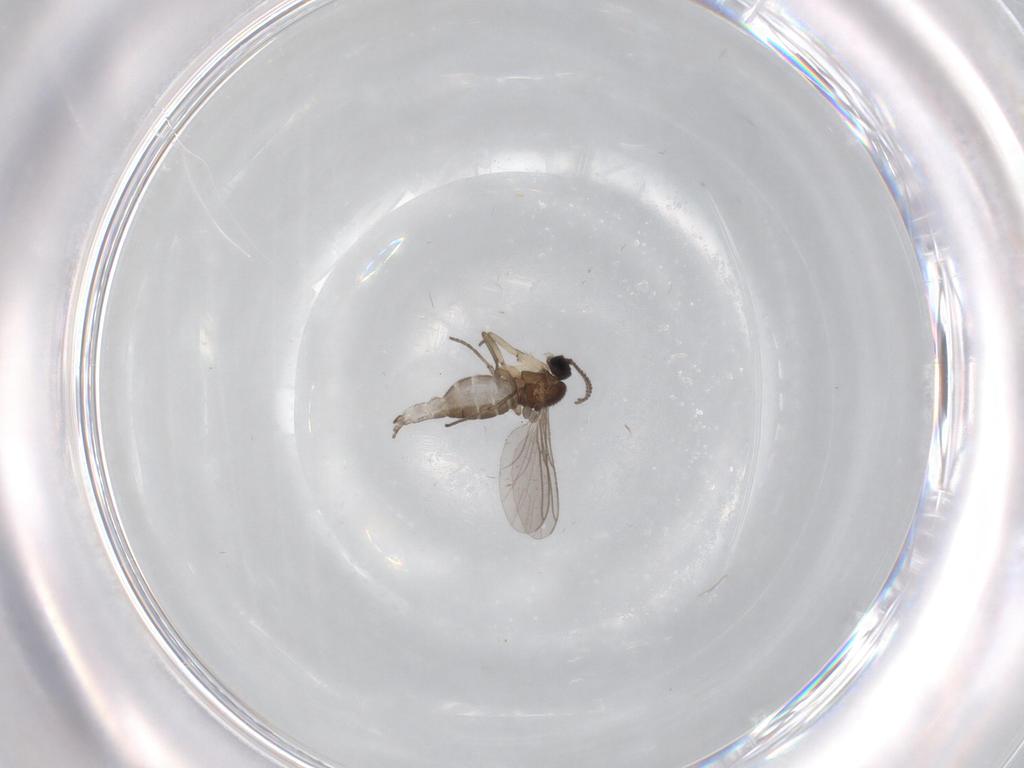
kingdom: Animalia
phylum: Arthropoda
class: Insecta
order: Diptera
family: Sciaridae
